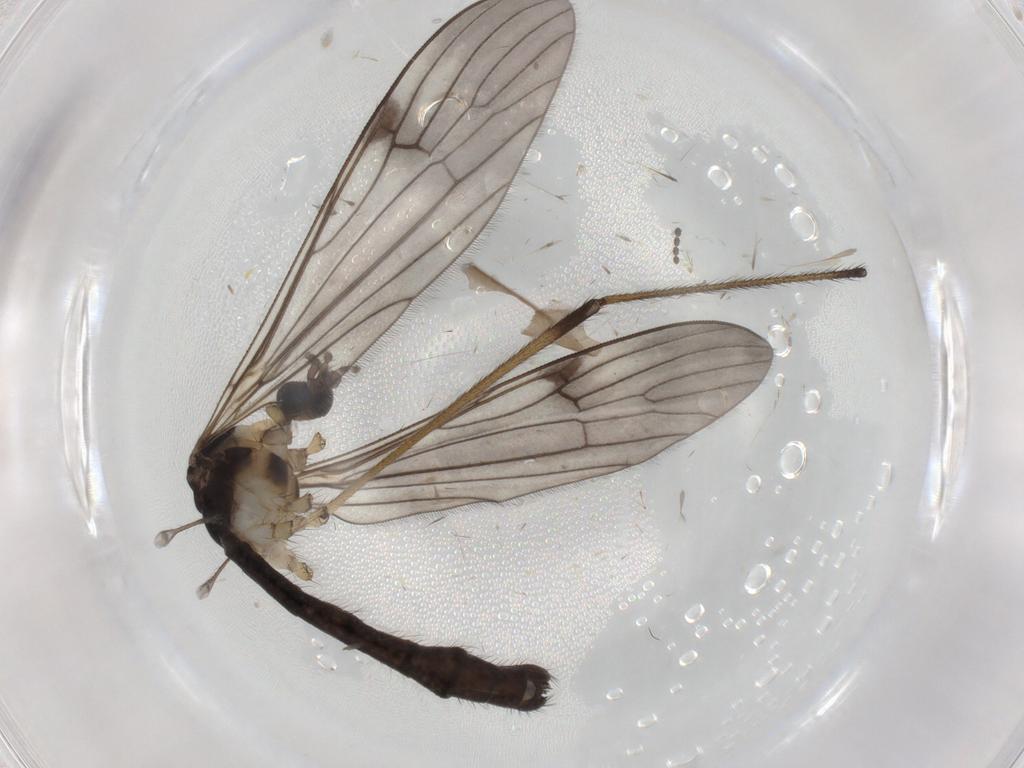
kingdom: Animalia
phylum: Arthropoda
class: Insecta
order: Diptera
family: Limoniidae
